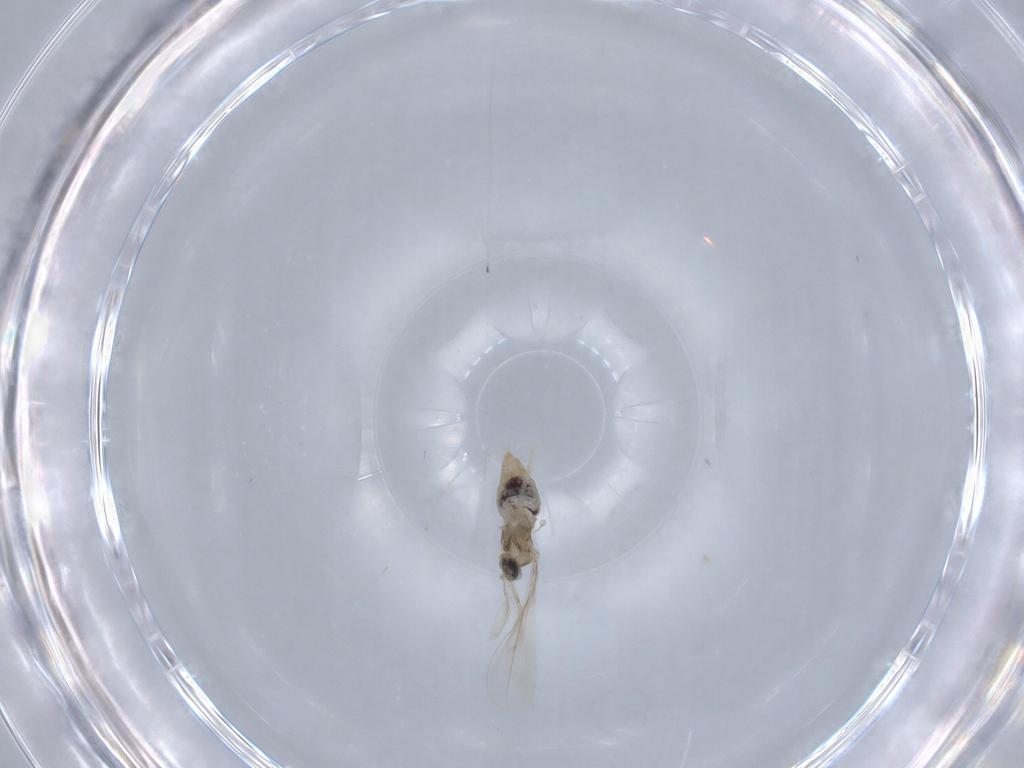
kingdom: Animalia
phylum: Arthropoda
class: Insecta
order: Diptera
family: Cecidomyiidae
